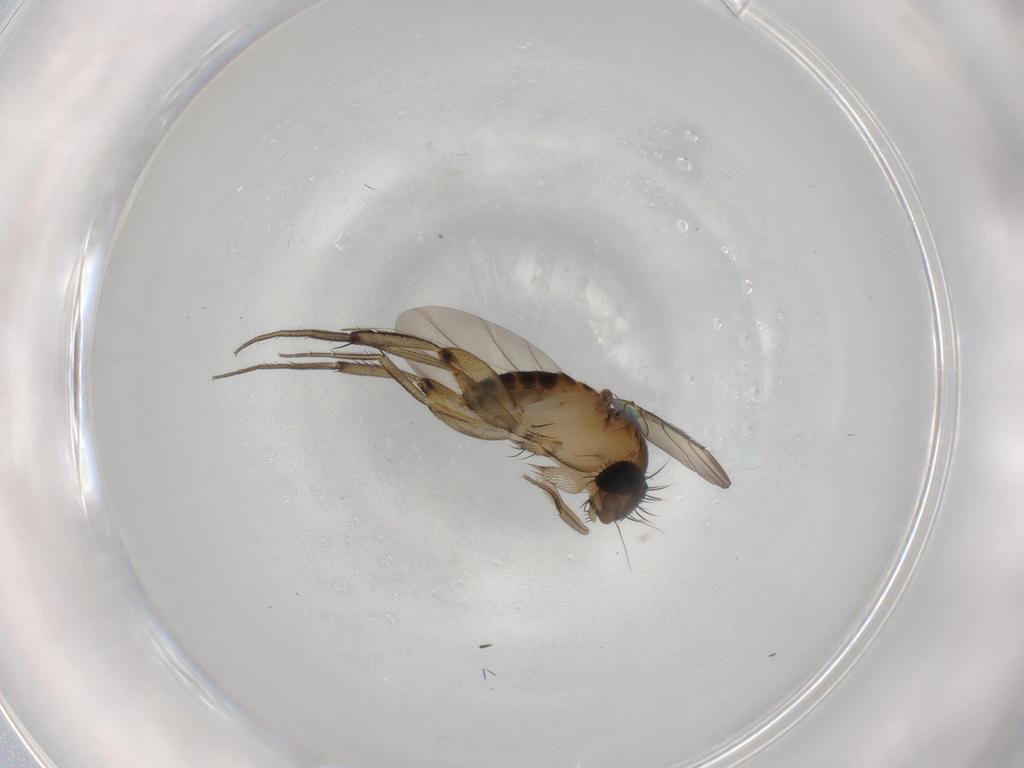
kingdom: Animalia
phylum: Arthropoda
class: Insecta
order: Diptera
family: Phoridae
